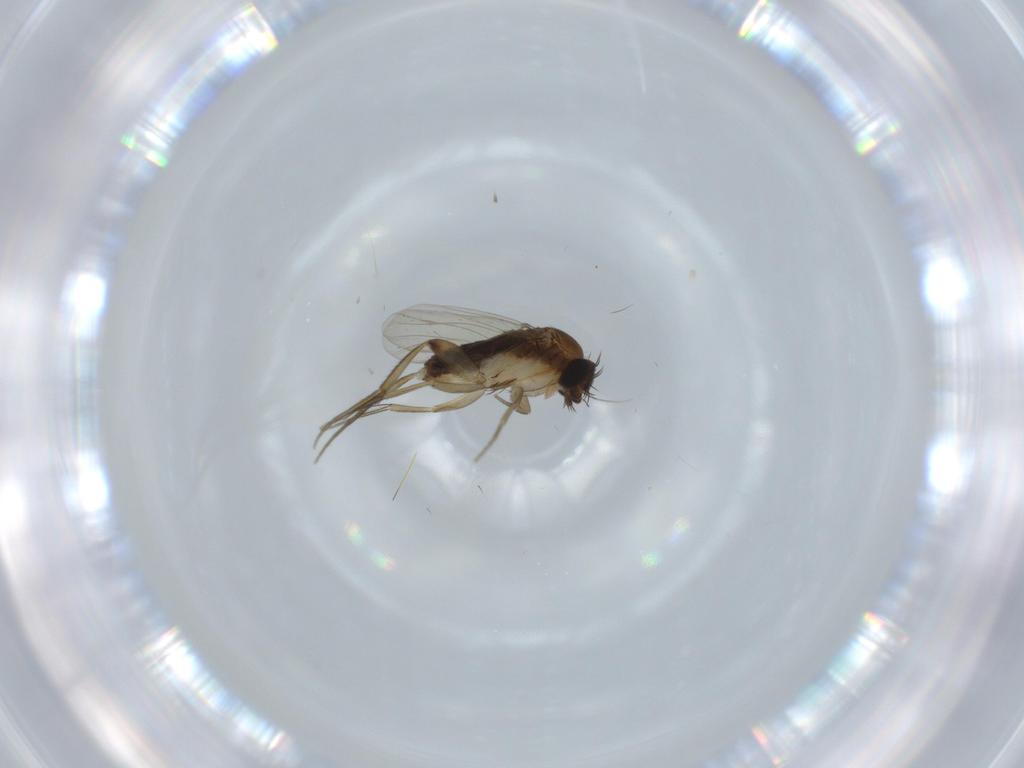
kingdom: Animalia
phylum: Arthropoda
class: Insecta
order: Diptera
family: Phoridae
